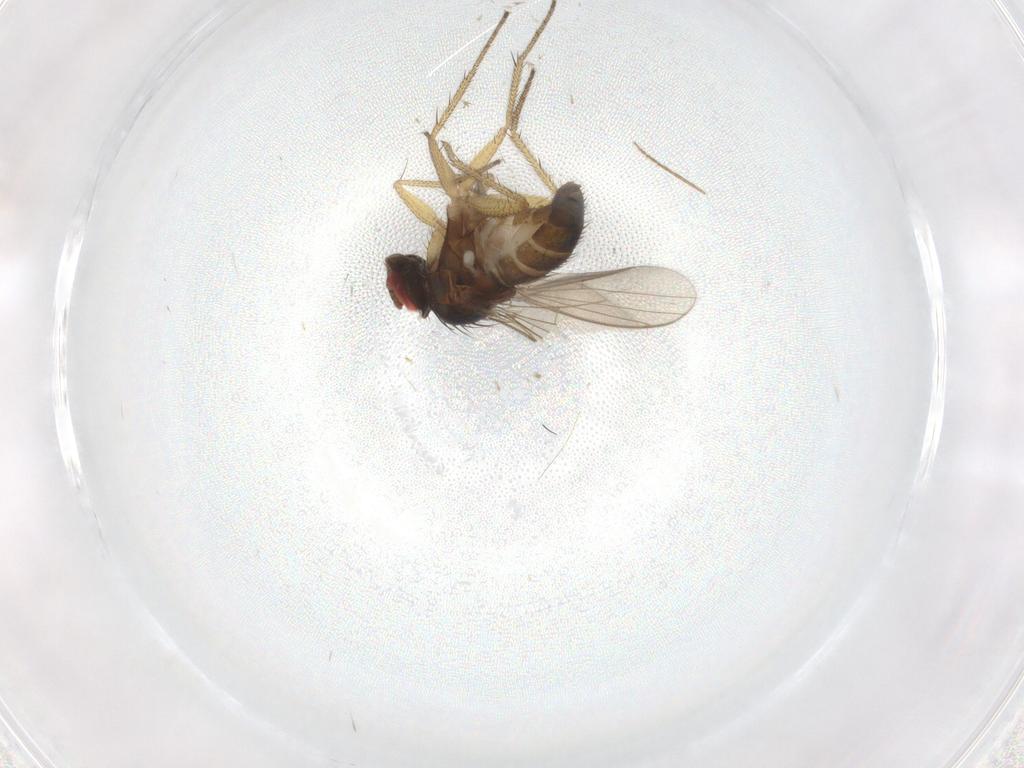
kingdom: Animalia
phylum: Arthropoda
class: Insecta
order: Diptera
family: Chironomidae
